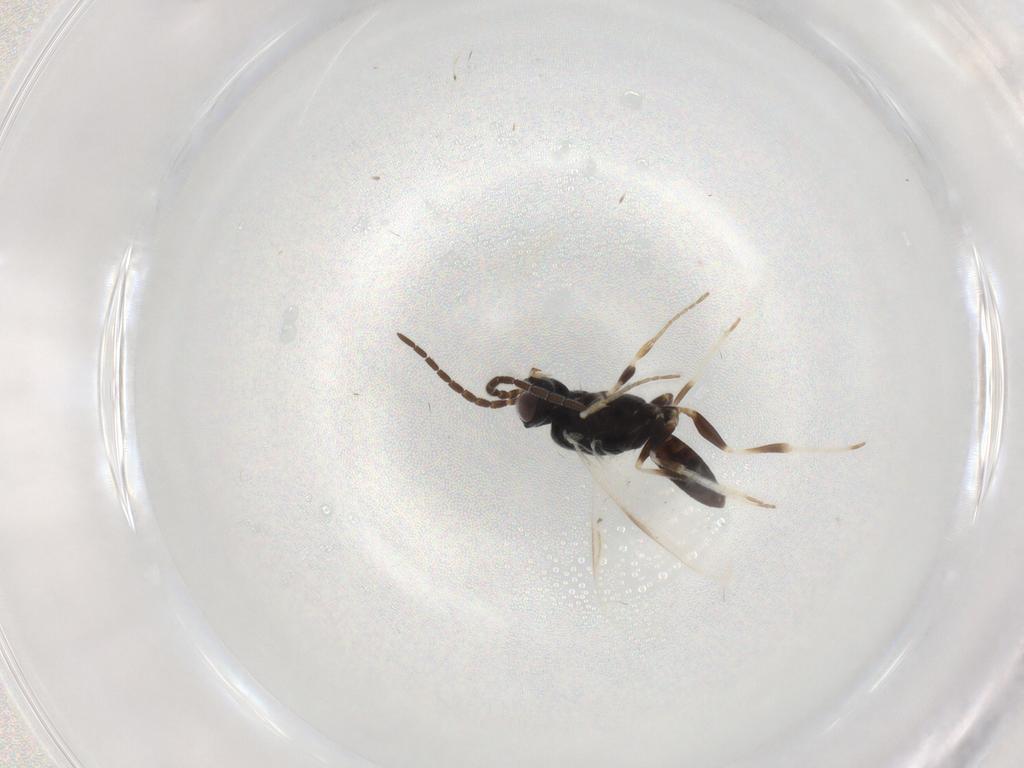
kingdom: Animalia
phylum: Arthropoda
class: Insecta
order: Hymenoptera
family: Dryinidae
